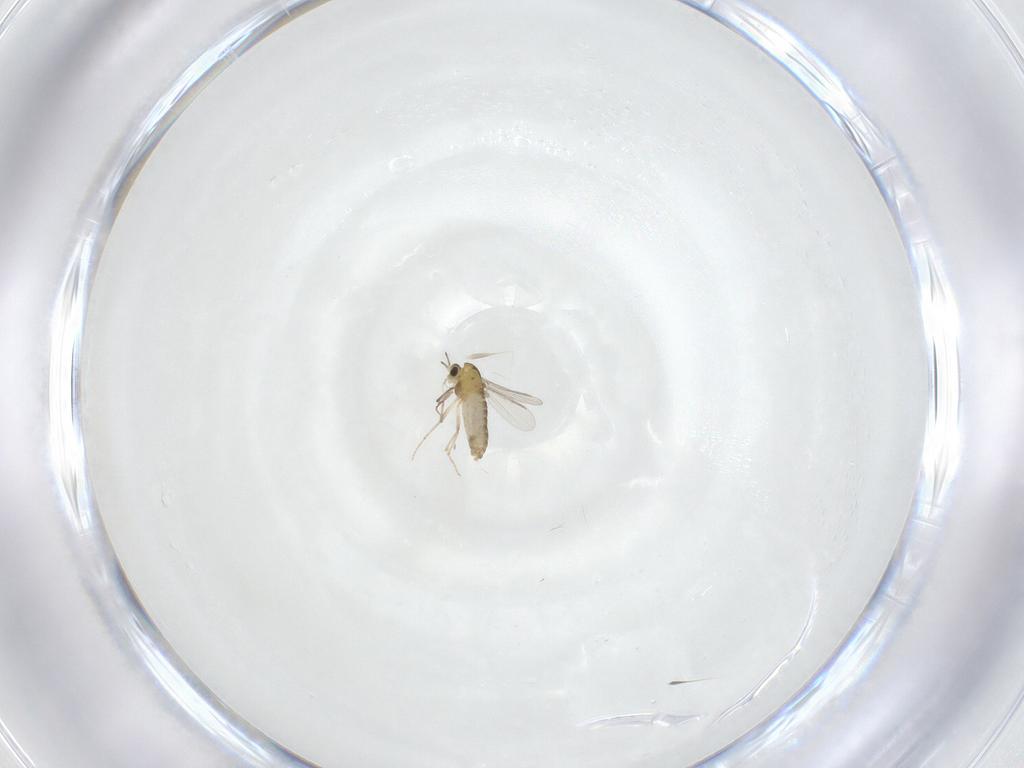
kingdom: Animalia
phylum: Arthropoda
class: Insecta
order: Diptera
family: Chironomidae
